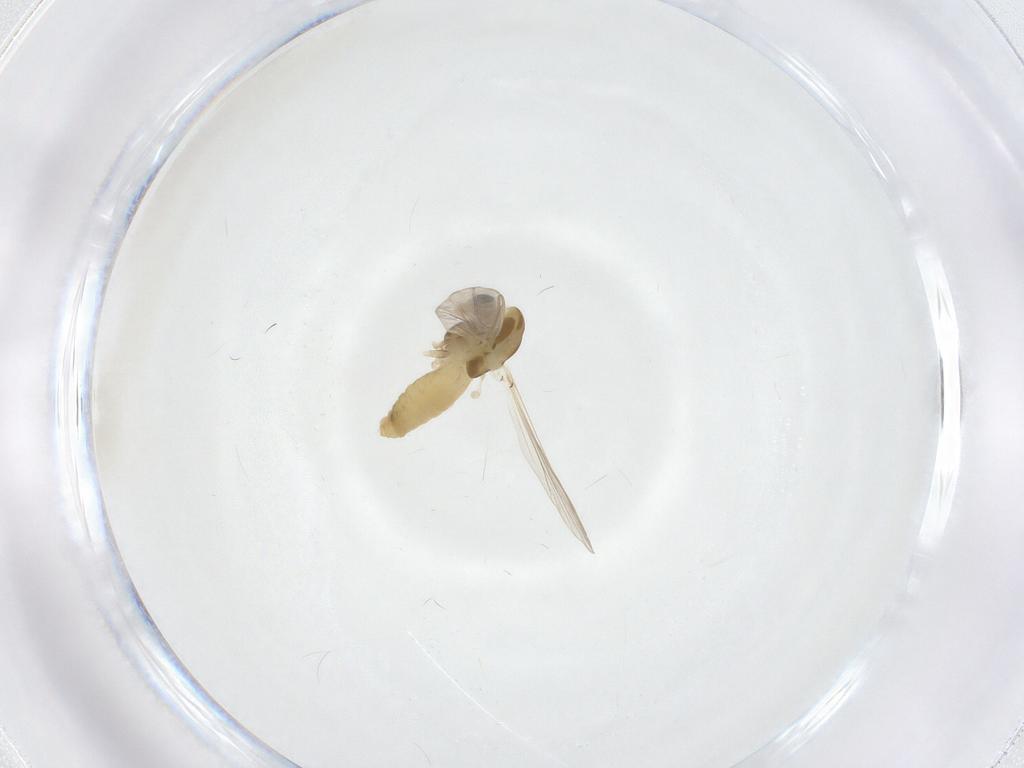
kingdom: Animalia
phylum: Arthropoda
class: Insecta
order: Diptera
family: Chironomidae
